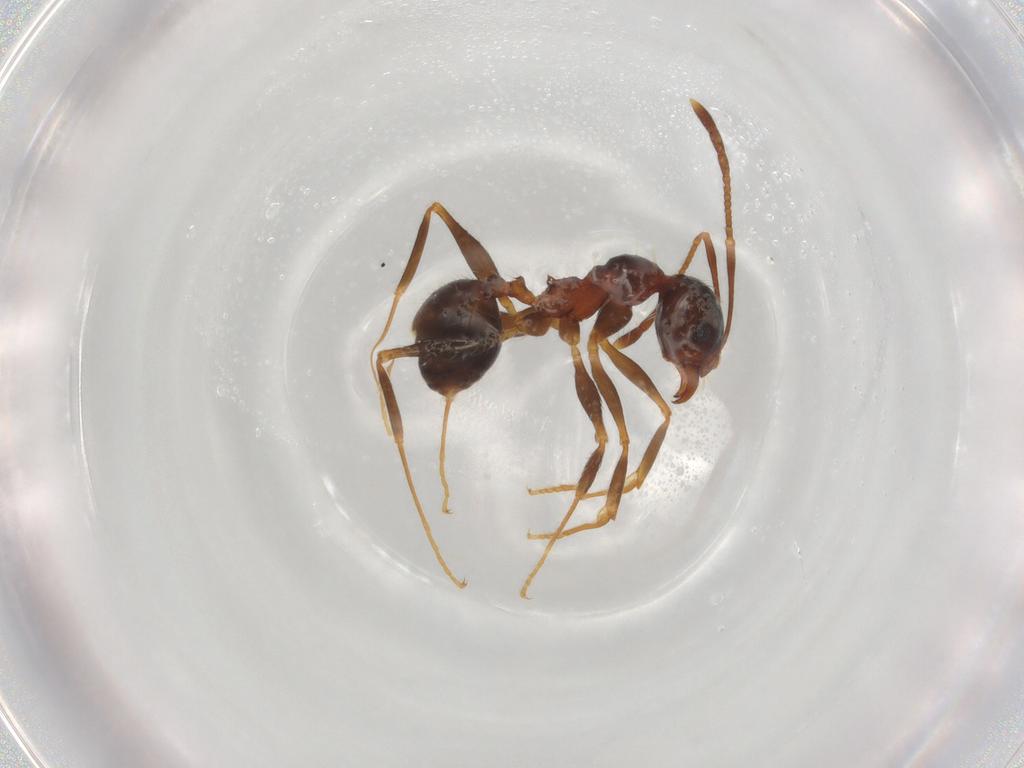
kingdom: Animalia
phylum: Arthropoda
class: Insecta
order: Hymenoptera
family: Formicidae
